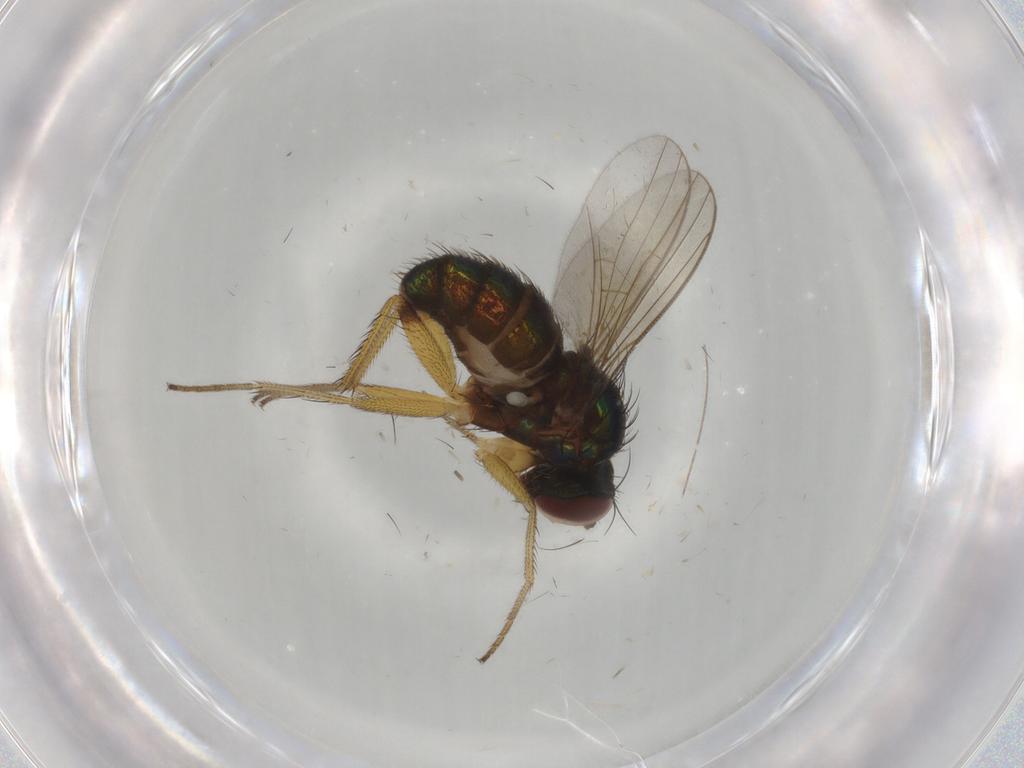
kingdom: Animalia
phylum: Arthropoda
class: Insecta
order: Diptera
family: Dolichopodidae
